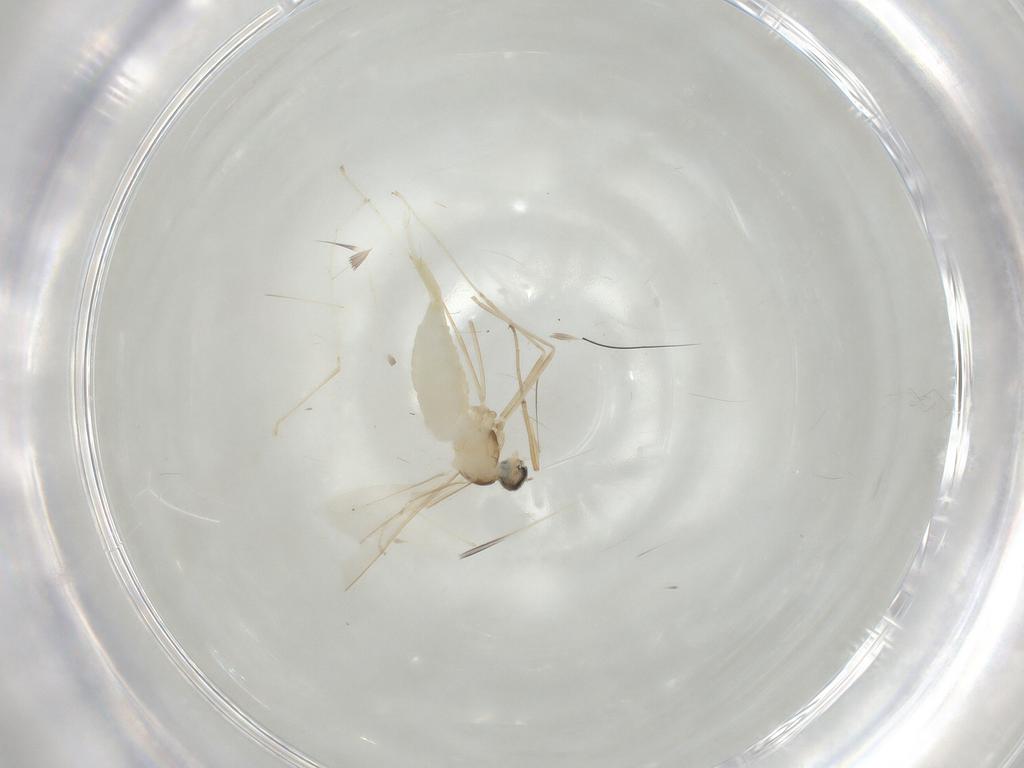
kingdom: Animalia
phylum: Arthropoda
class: Insecta
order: Diptera
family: Cecidomyiidae
